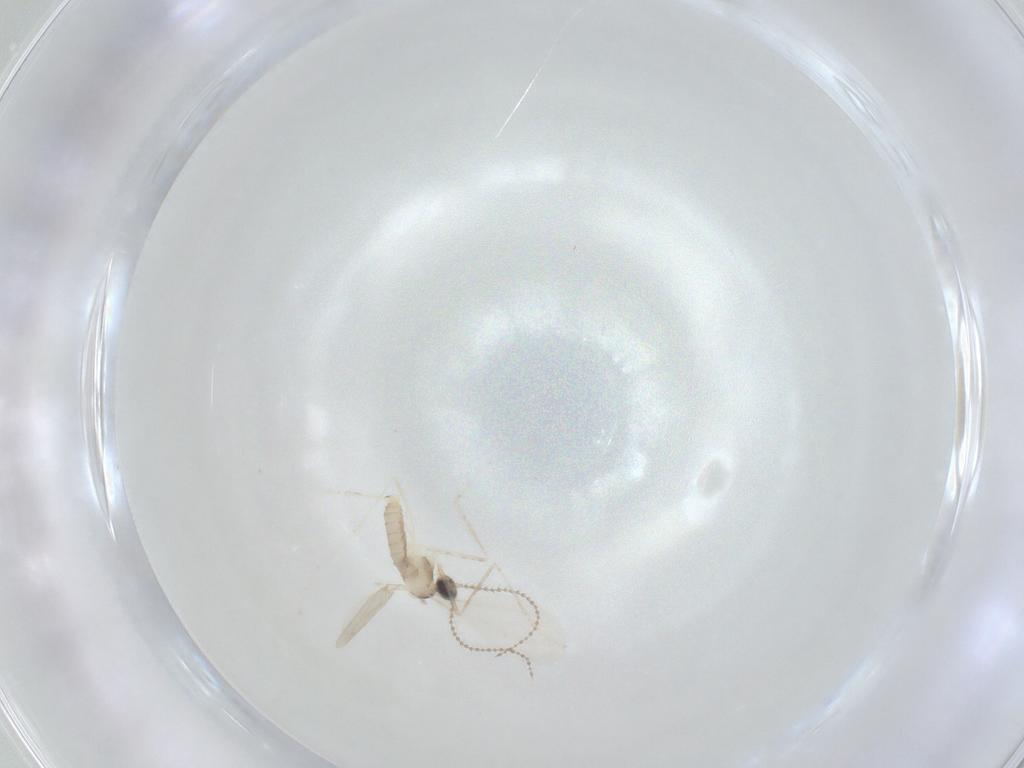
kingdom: Animalia
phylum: Arthropoda
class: Insecta
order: Diptera
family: Cecidomyiidae
